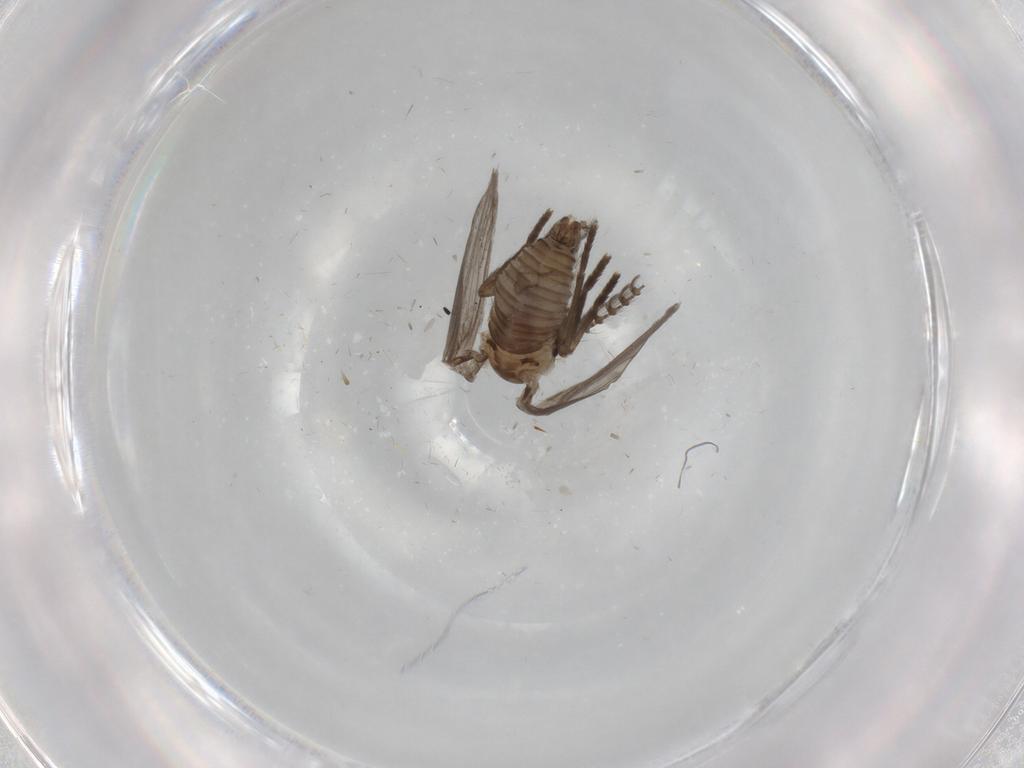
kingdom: Animalia
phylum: Arthropoda
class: Insecta
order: Diptera
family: Psychodidae
